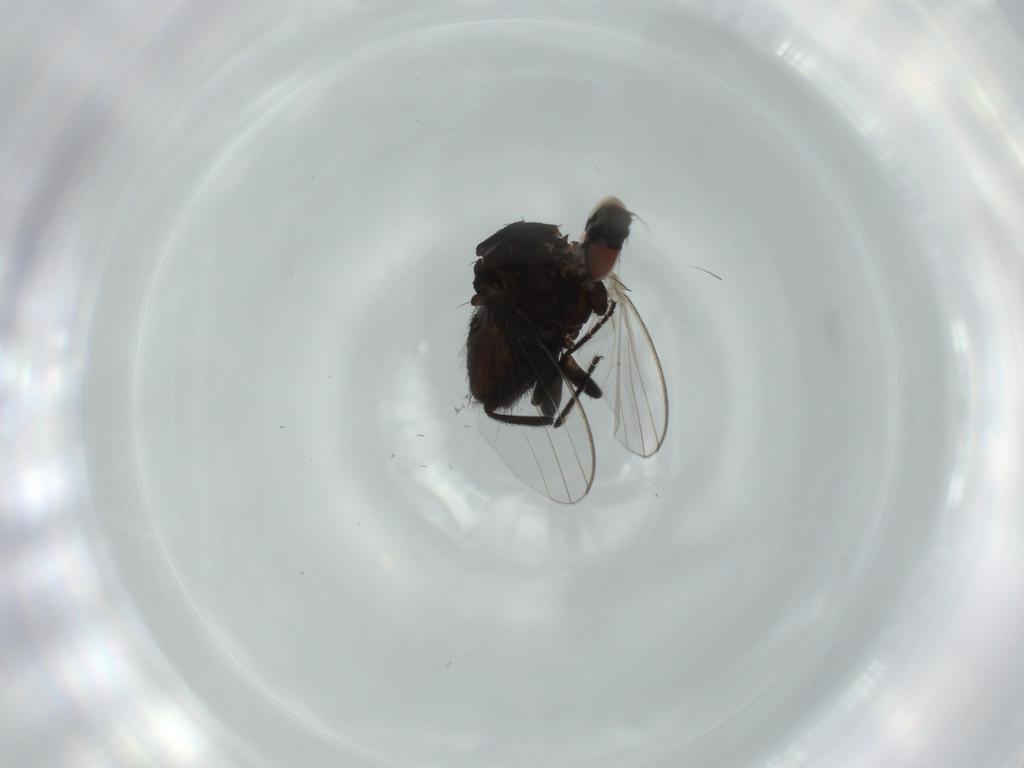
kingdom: Animalia
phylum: Arthropoda
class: Insecta
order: Diptera
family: Milichiidae
